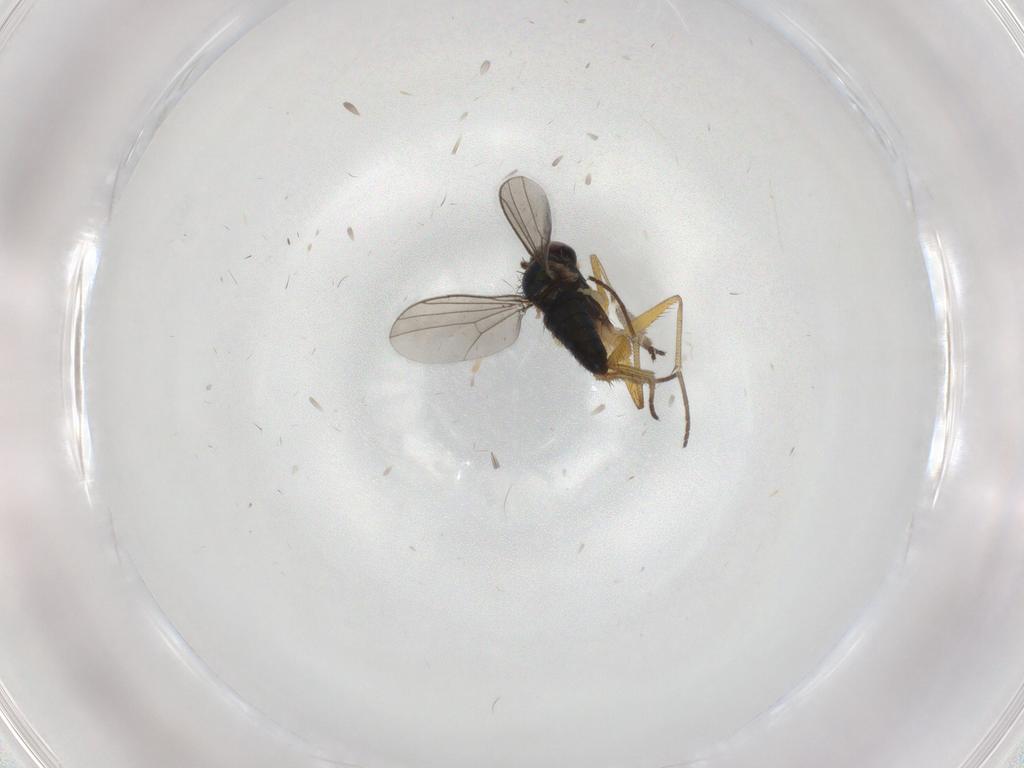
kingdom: Animalia
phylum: Arthropoda
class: Insecta
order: Diptera
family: Dolichopodidae
